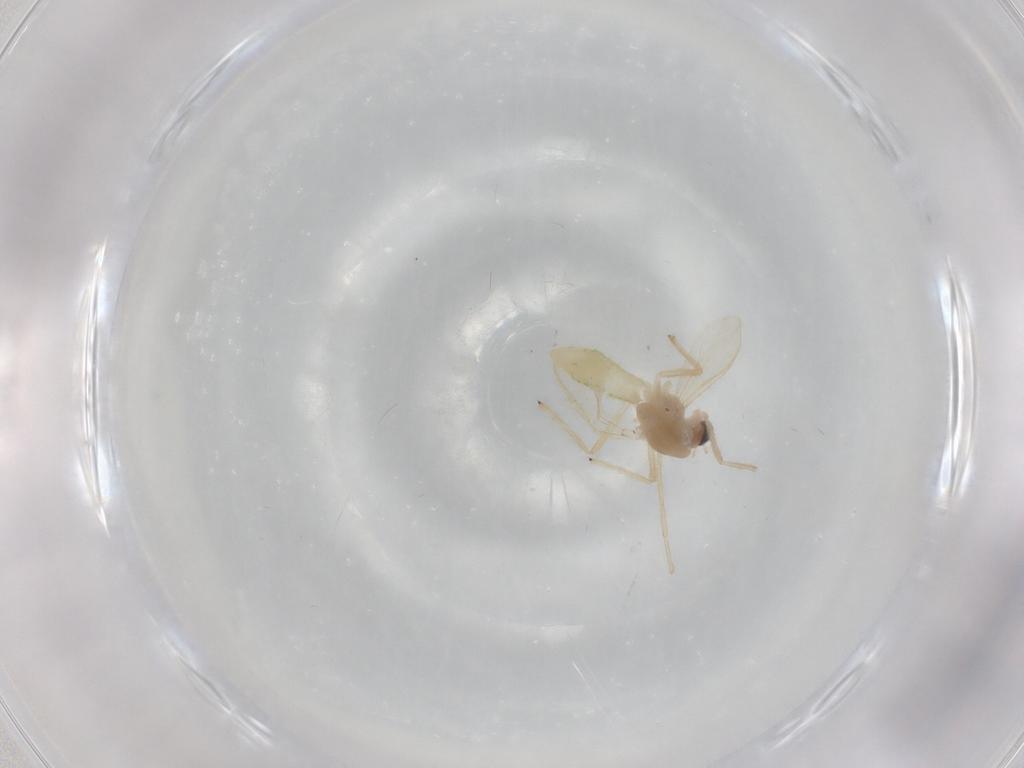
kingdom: Animalia
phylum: Arthropoda
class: Insecta
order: Diptera
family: Chironomidae
